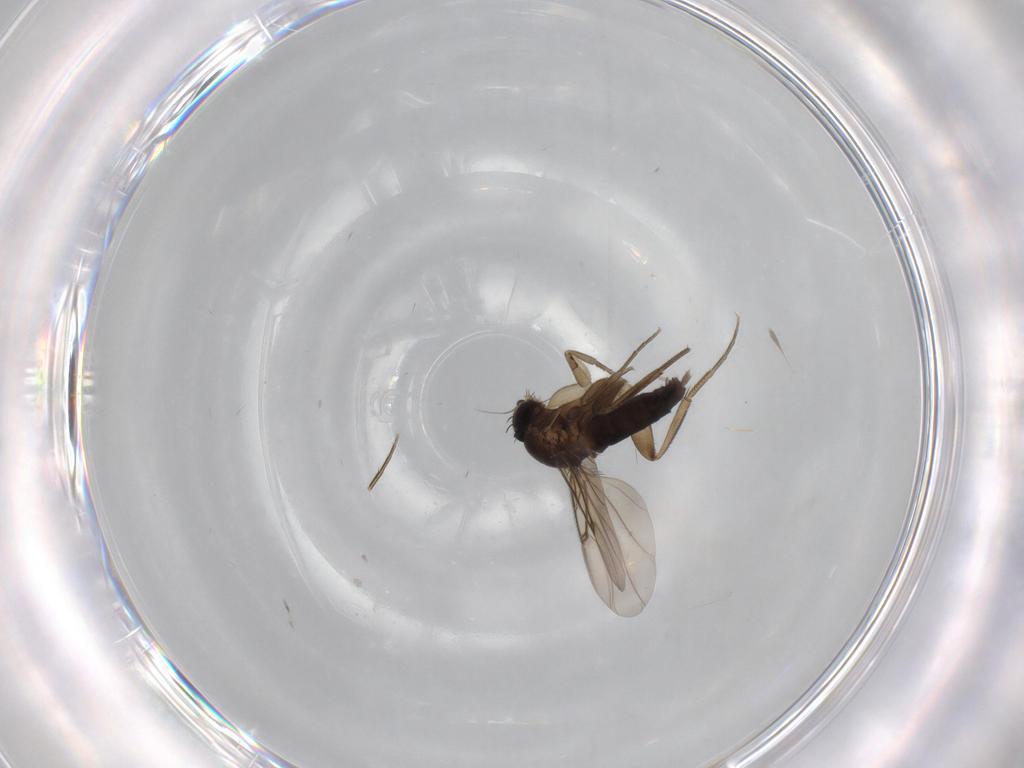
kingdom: Animalia
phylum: Arthropoda
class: Insecta
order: Diptera
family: Phoridae
